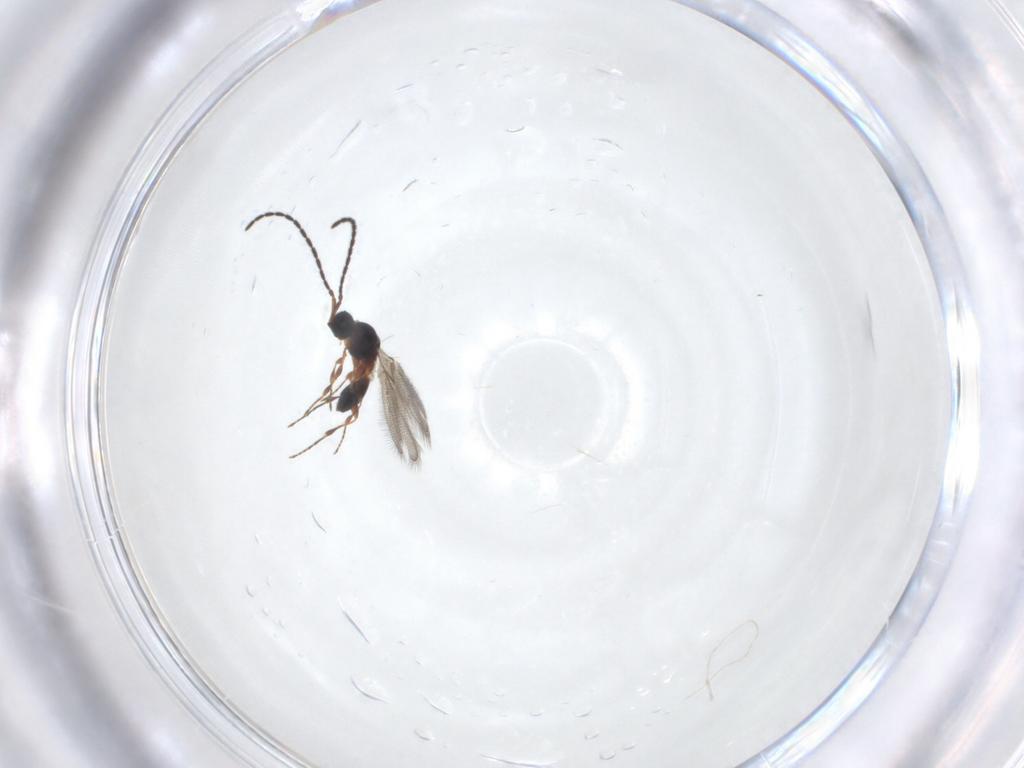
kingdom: Animalia
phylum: Arthropoda
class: Insecta
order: Hymenoptera
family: Diapriidae
